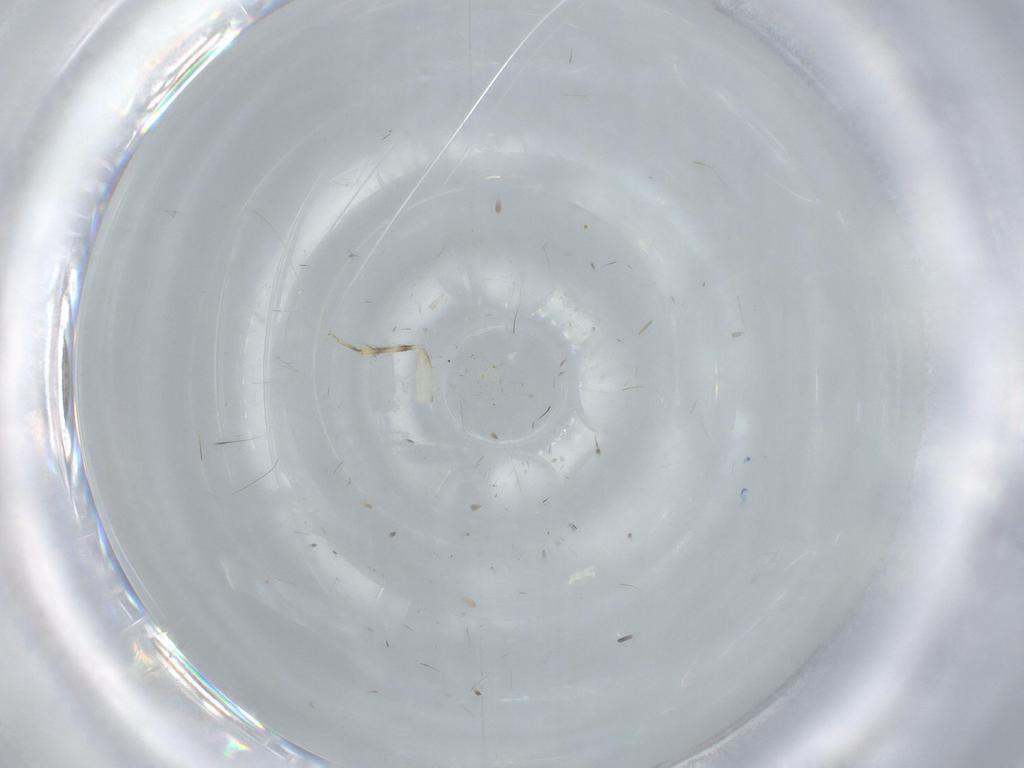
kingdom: Animalia
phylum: Arthropoda
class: Insecta
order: Psocodea
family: Lepidopsocidae
